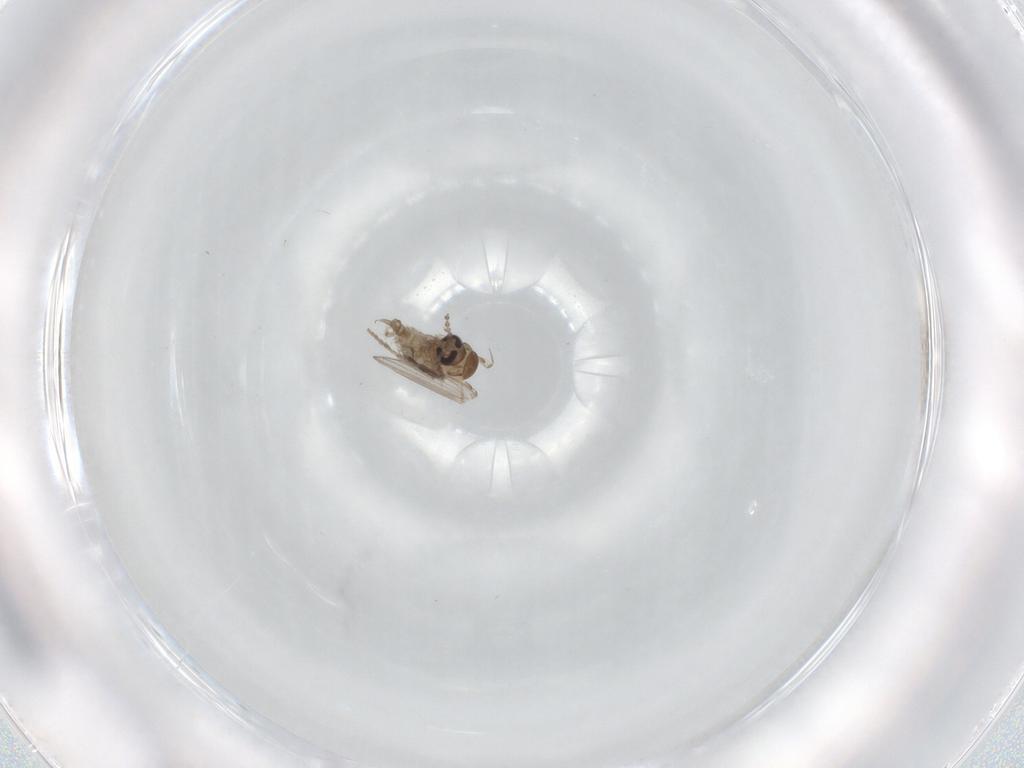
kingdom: Animalia
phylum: Arthropoda
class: Insecta
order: Diptera
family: Psychodidae
